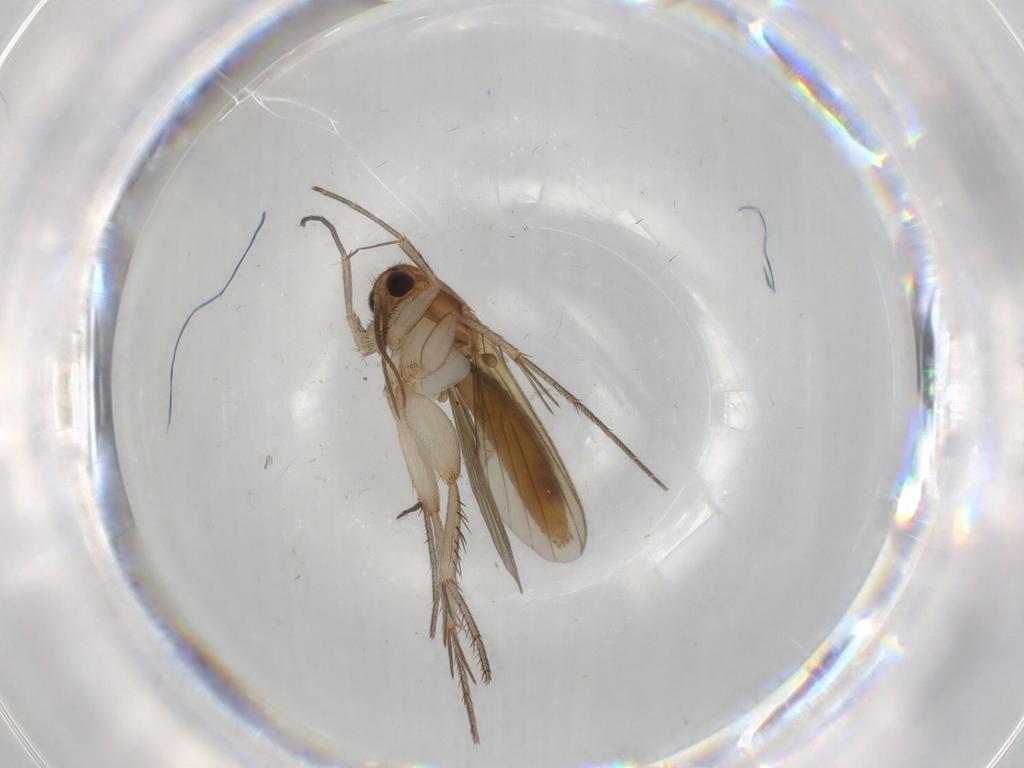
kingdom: Animalia
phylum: Arthropoda
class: Insecta
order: Diptera
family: Mycetophilidae
